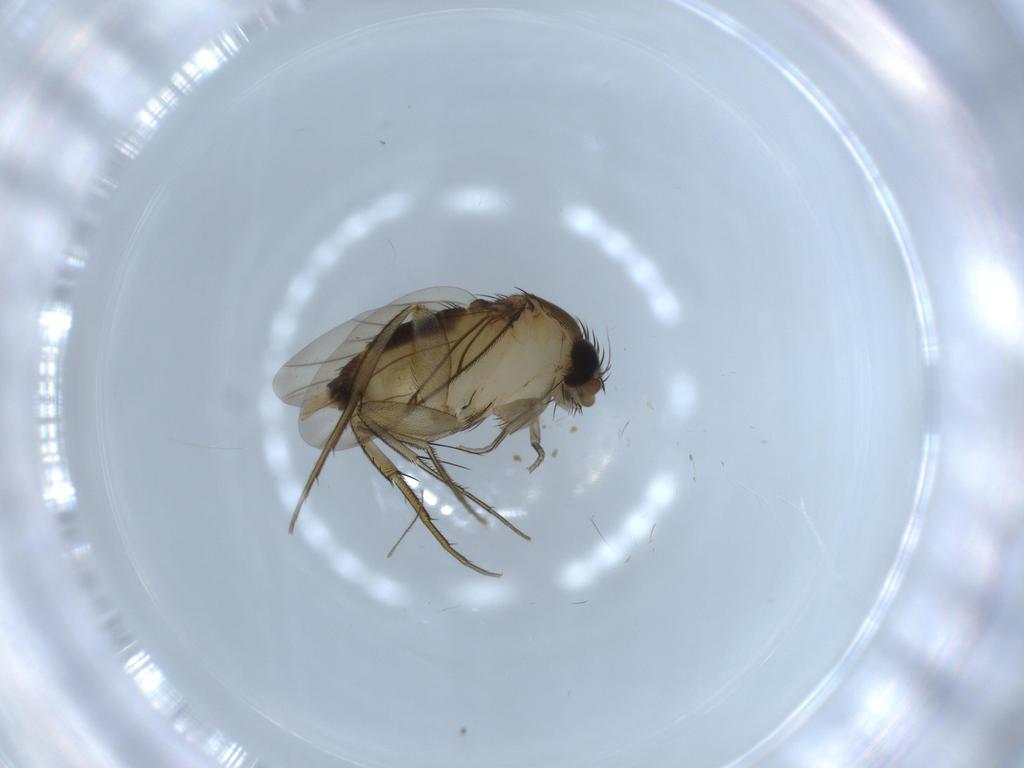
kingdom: Animalia
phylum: Arthropoda
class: Insecta
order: Diptera
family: Phoridae
